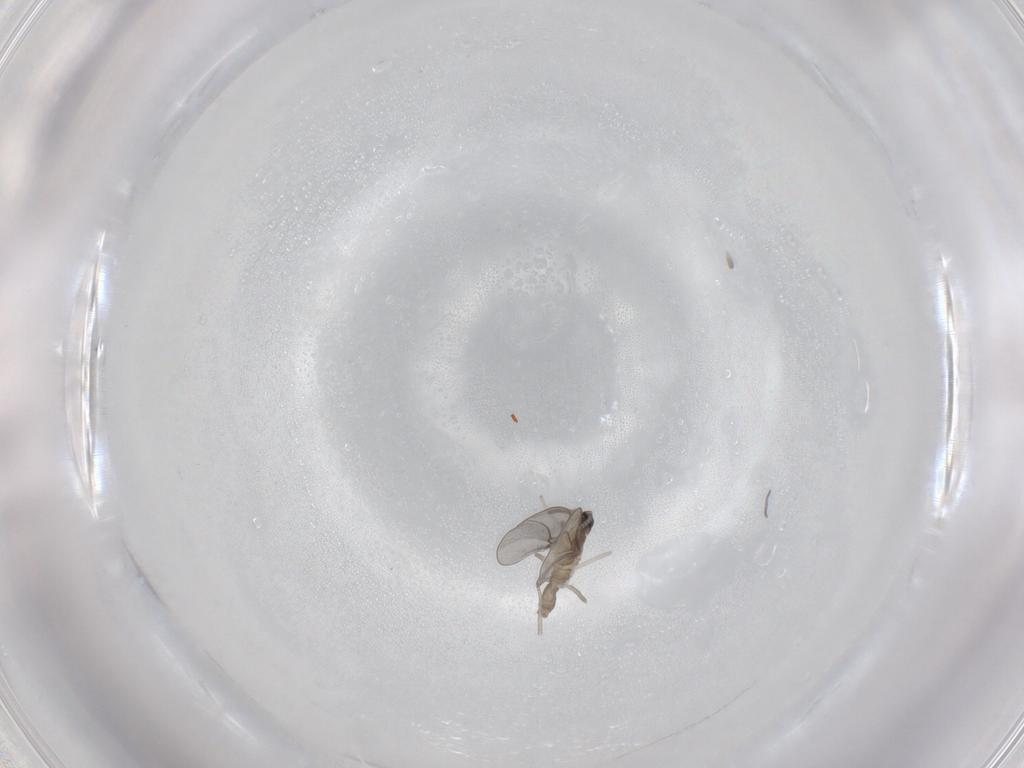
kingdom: Animalia
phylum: Arthropoda
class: Insecta
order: Diptera
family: Cecidomyiidae
